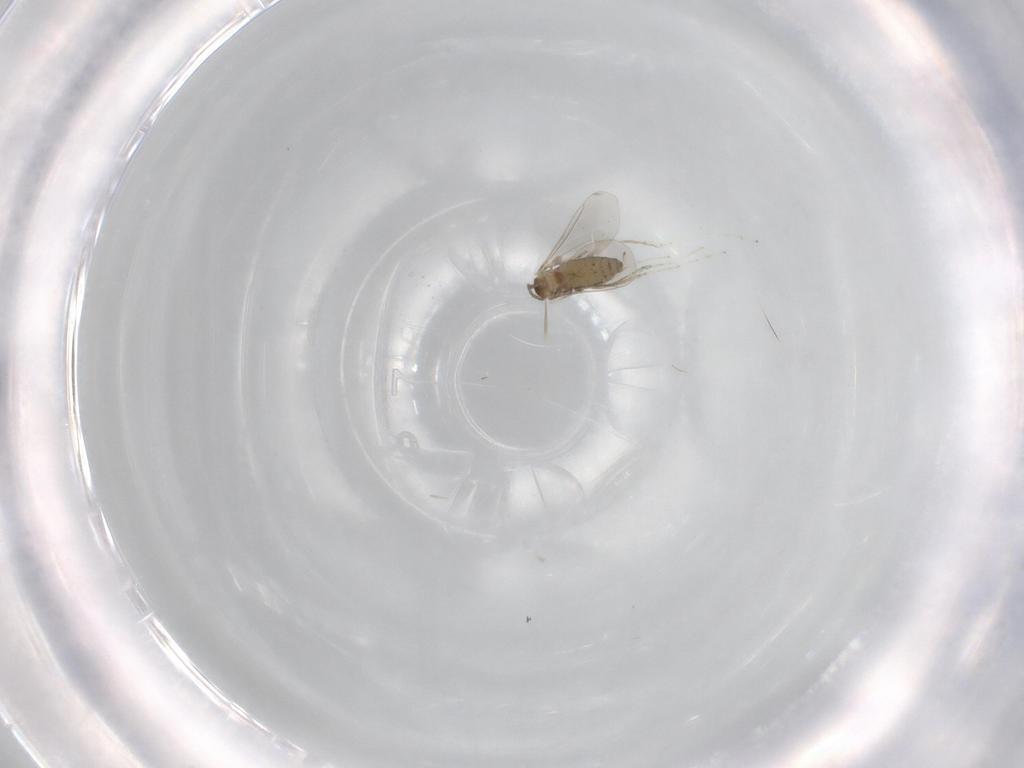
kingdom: Animalia
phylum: Arthropoda
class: Insecta
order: Diptera
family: Cecidomyiidae
